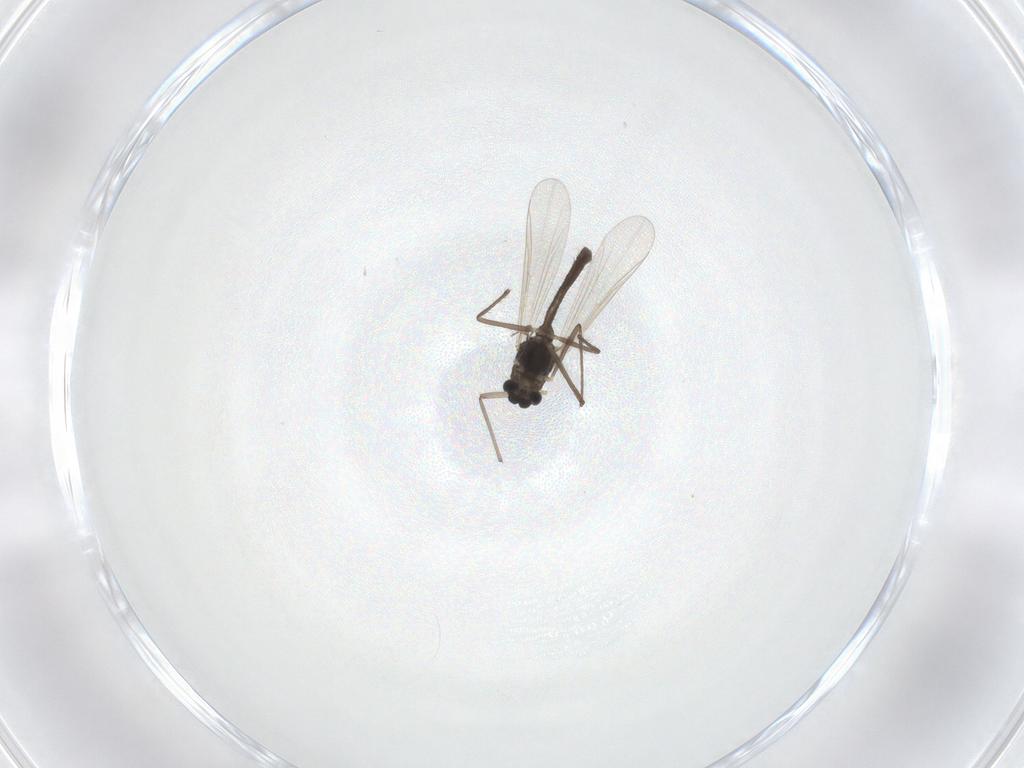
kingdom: Animalia
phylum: Arthropoda
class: Insecta
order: Diptera
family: Chironomidae
